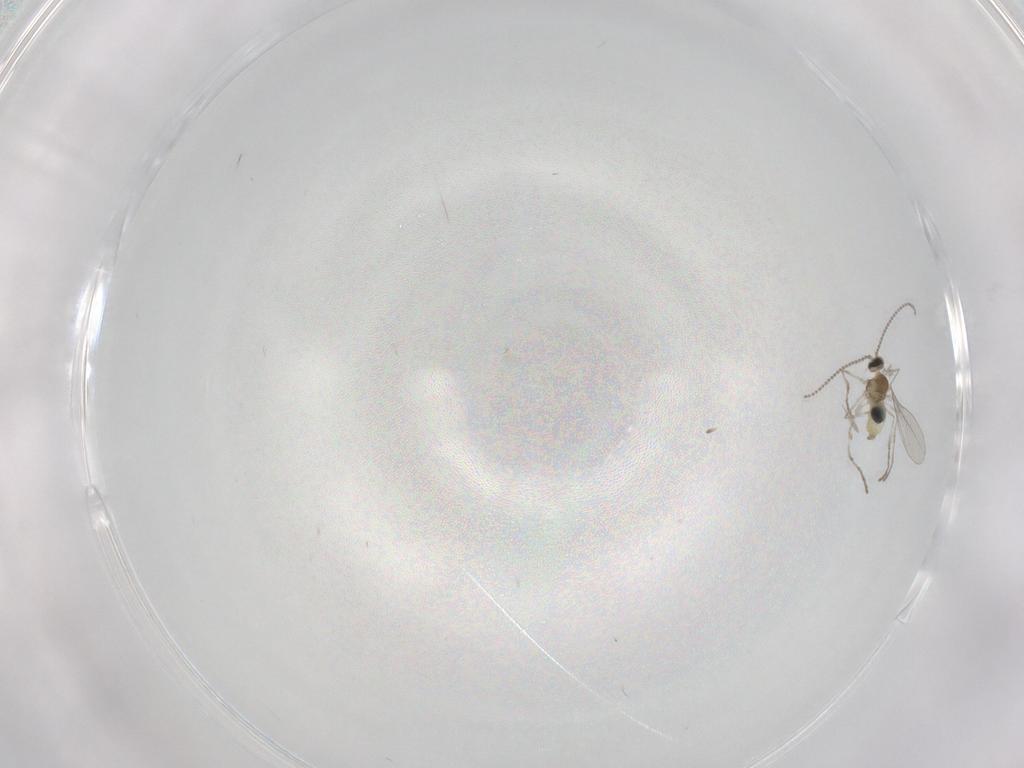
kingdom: Animalia
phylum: Arthropoda
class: Insecta
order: Diptera
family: Cecidomyiidae
